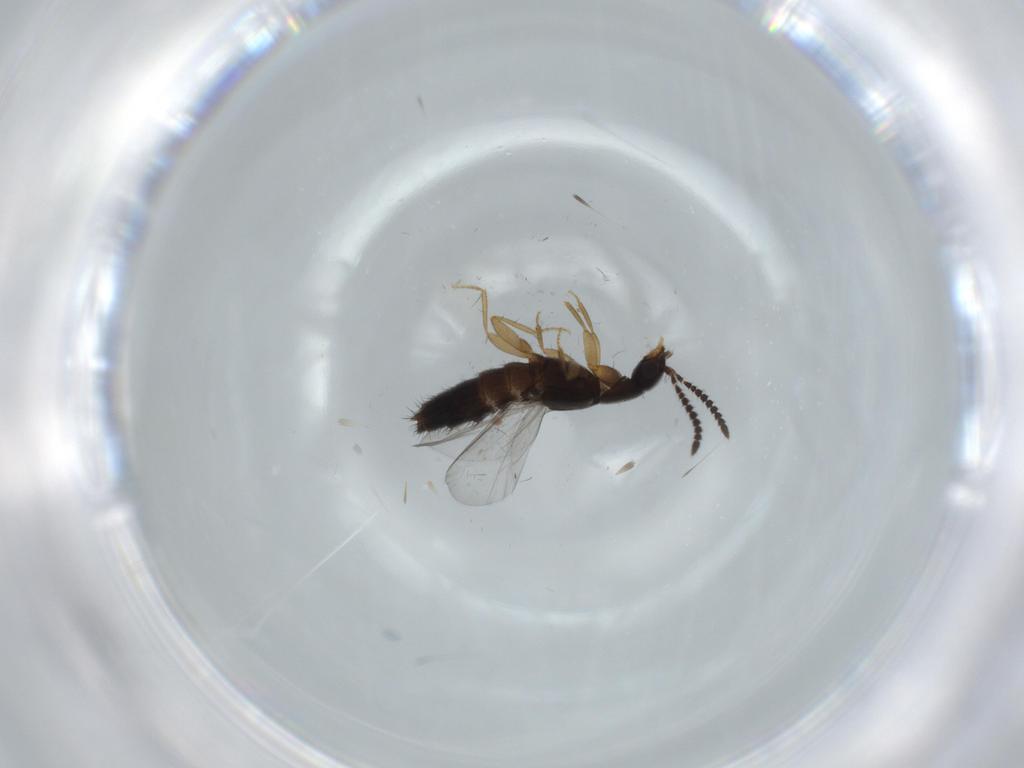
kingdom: Animalia
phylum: Arthropoda
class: Insecta
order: Coleoptera
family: Staphylinidae
